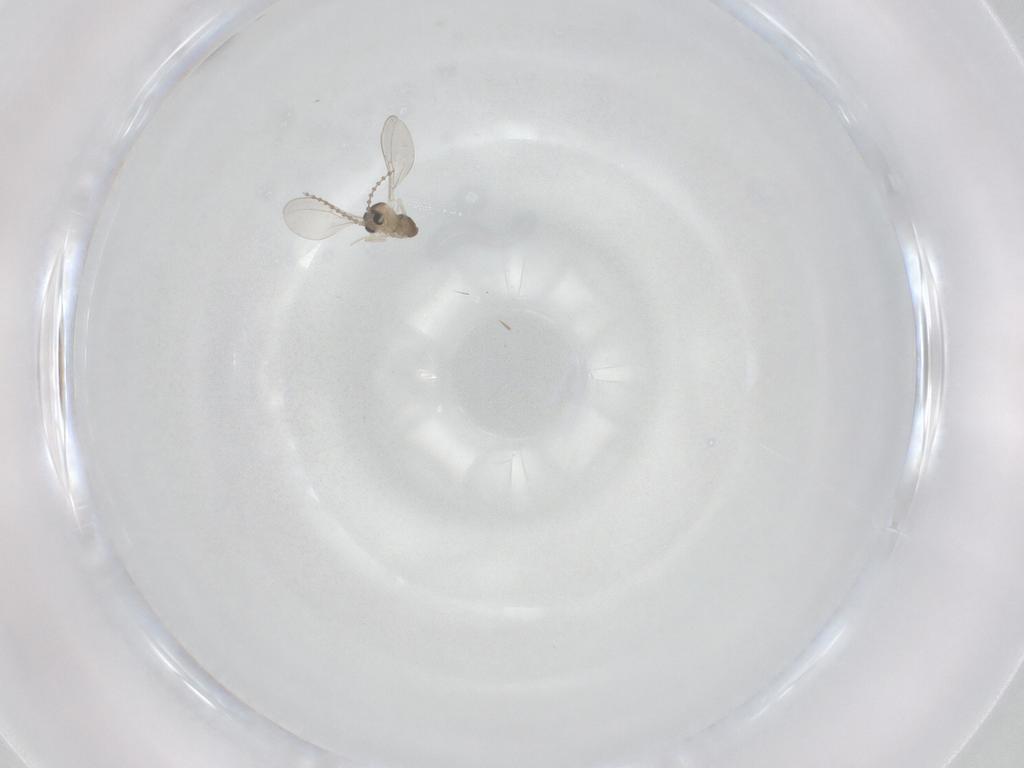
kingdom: Animalia
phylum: Arthropoda
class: Insecta
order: Diptera
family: Cecidomyiidae
